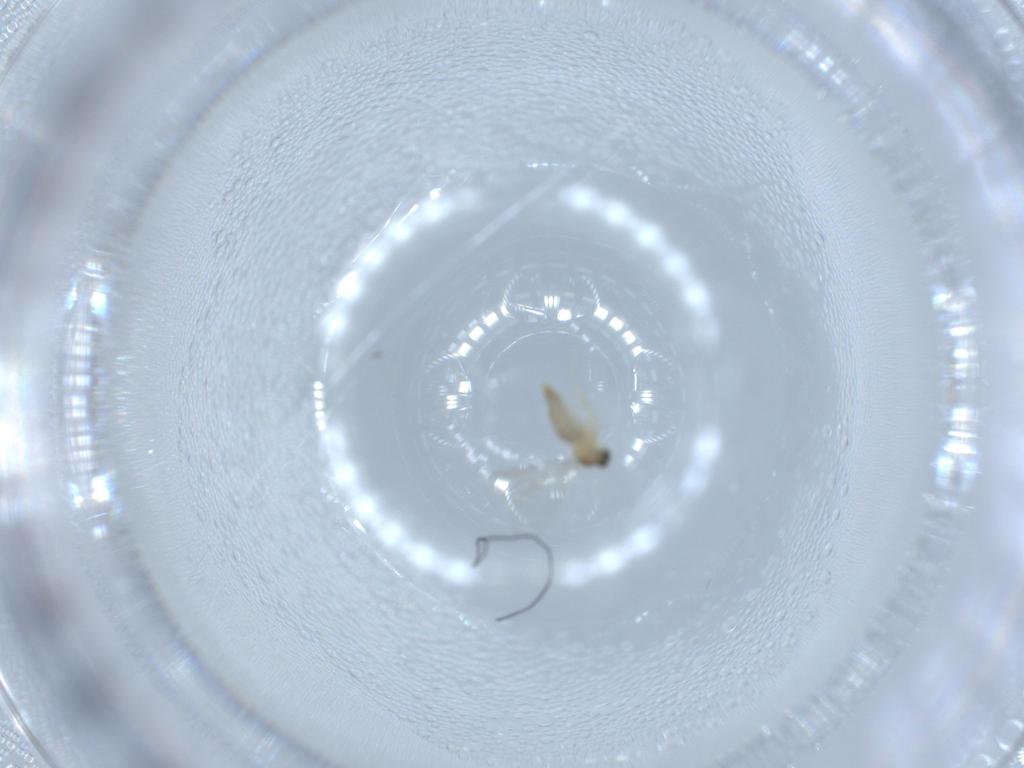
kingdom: Animalia
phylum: Arthropoda
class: Insecta
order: Diptera
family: Cecidomyiidae
